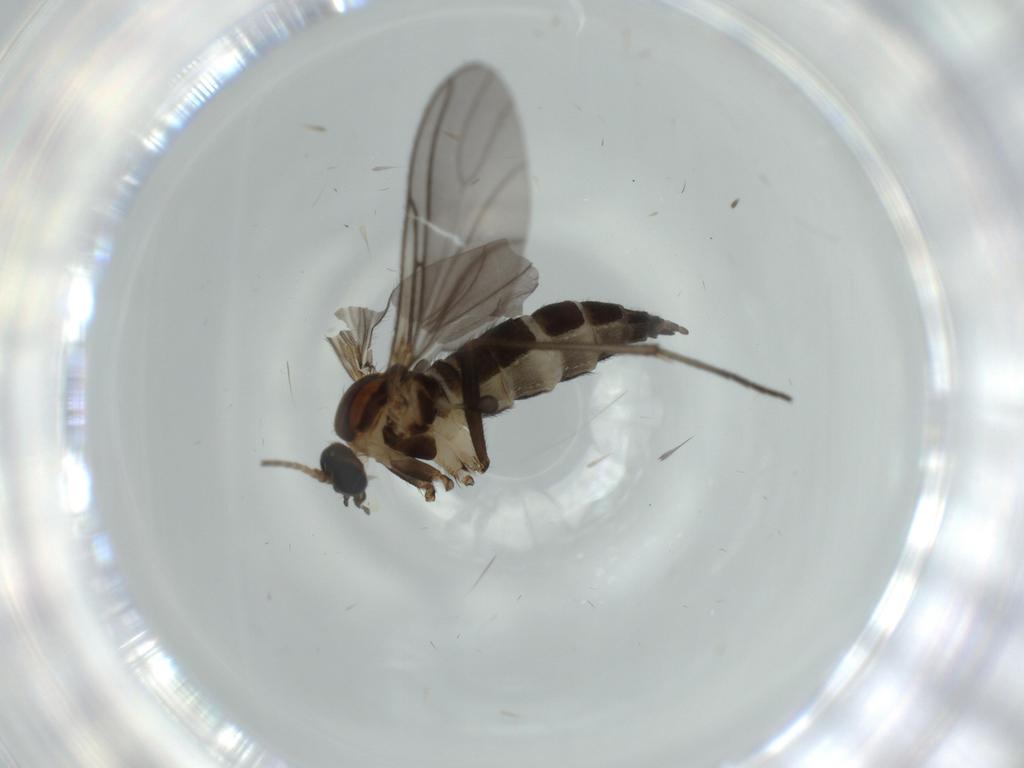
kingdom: Animalia
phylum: Arthropoda
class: Insecta
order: Diptera
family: Sciaridae
